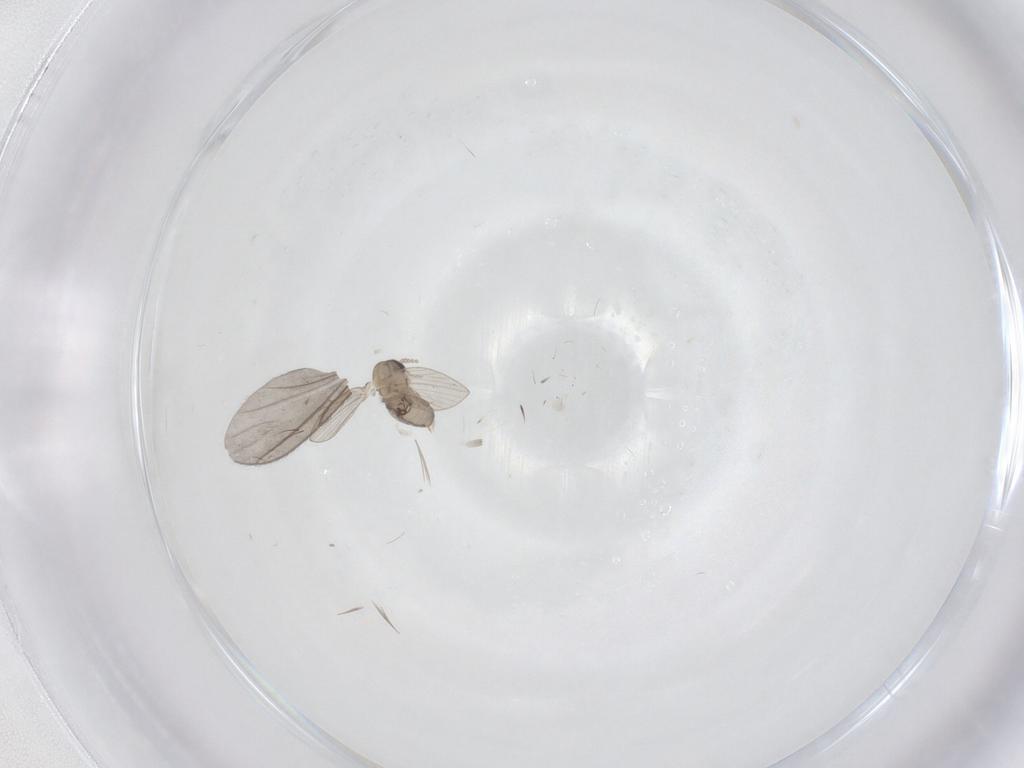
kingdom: Animalia
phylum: Arthropoda
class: Insecta
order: Diptera
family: Psychodidae
